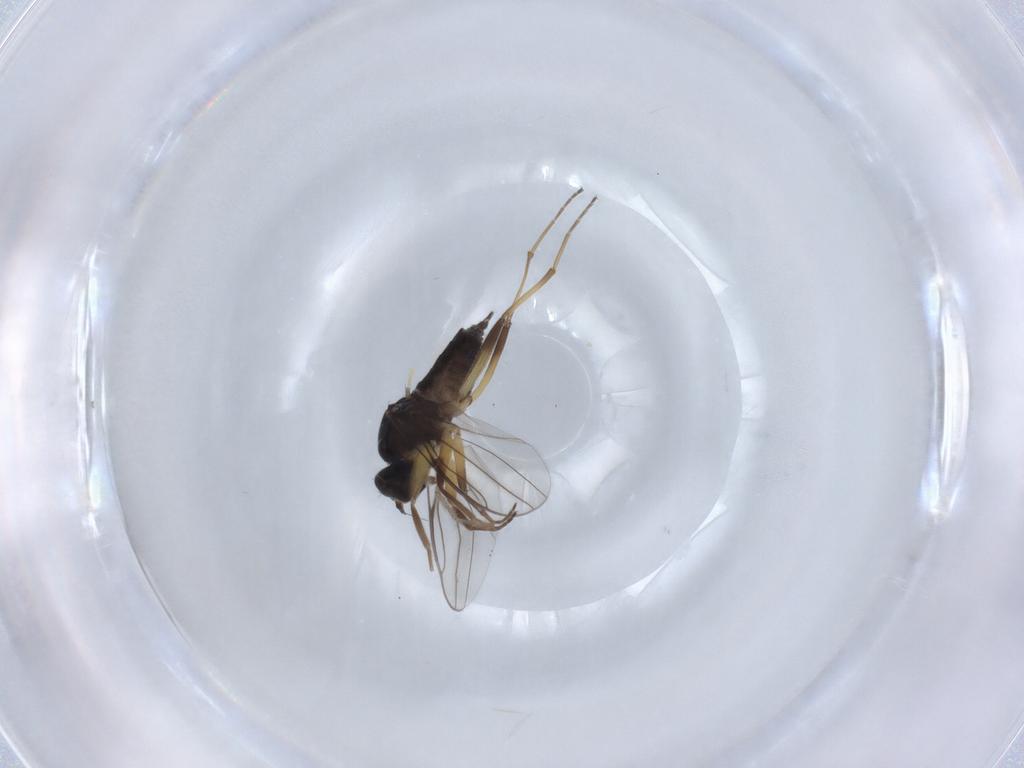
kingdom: Animalia
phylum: Arthropoda
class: Insecta
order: Diptera
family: Hybotidae
